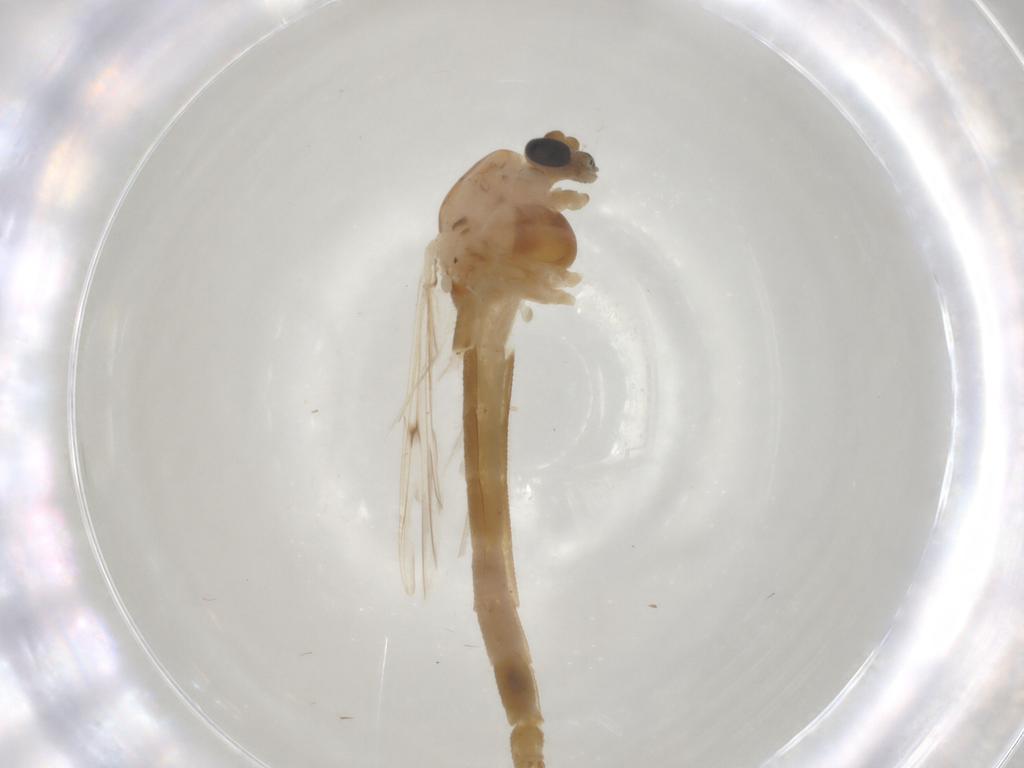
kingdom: Animalia
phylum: Arthropoda
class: Insecta
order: Diptera
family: Chironomidae
